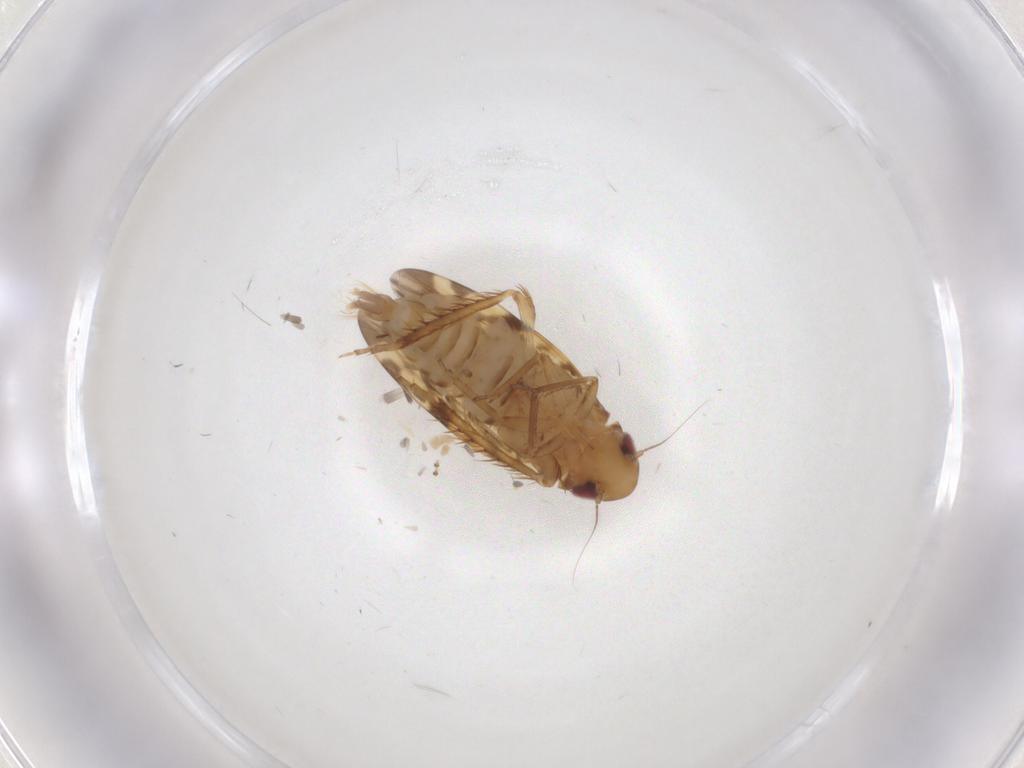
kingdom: Animalia
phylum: Arthropoda
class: Insecta
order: Hemiptera
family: Cicadellidae
